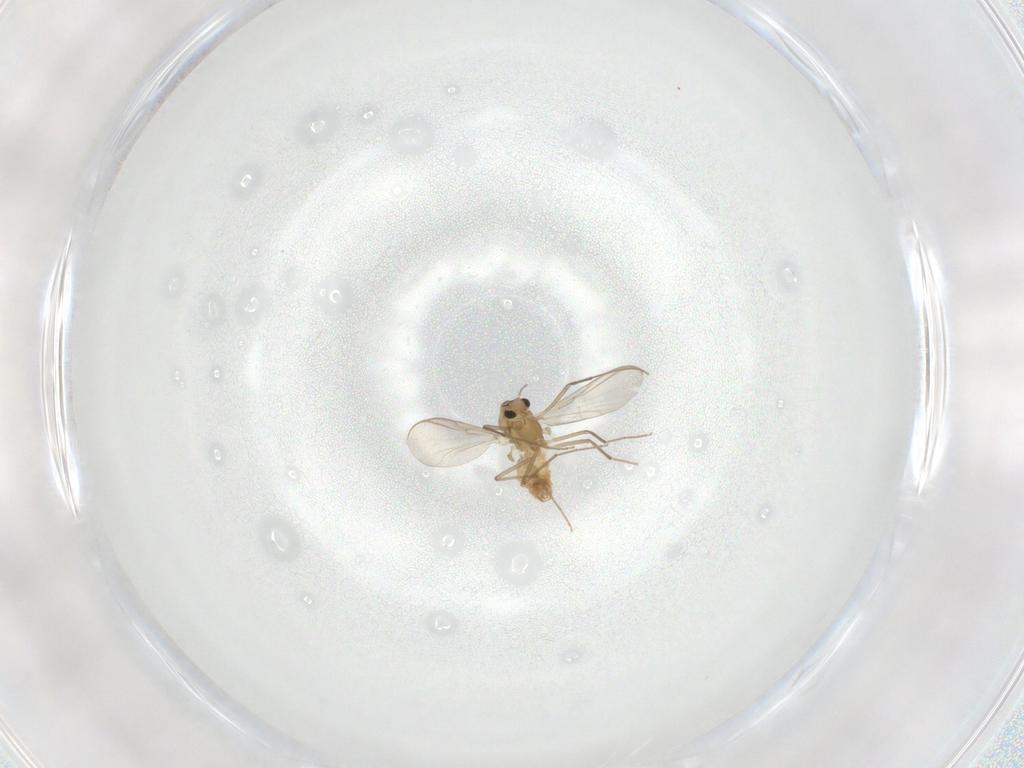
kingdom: Animalia
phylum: Arthropoda
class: Insecta
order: Diptera
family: Chironomidae
